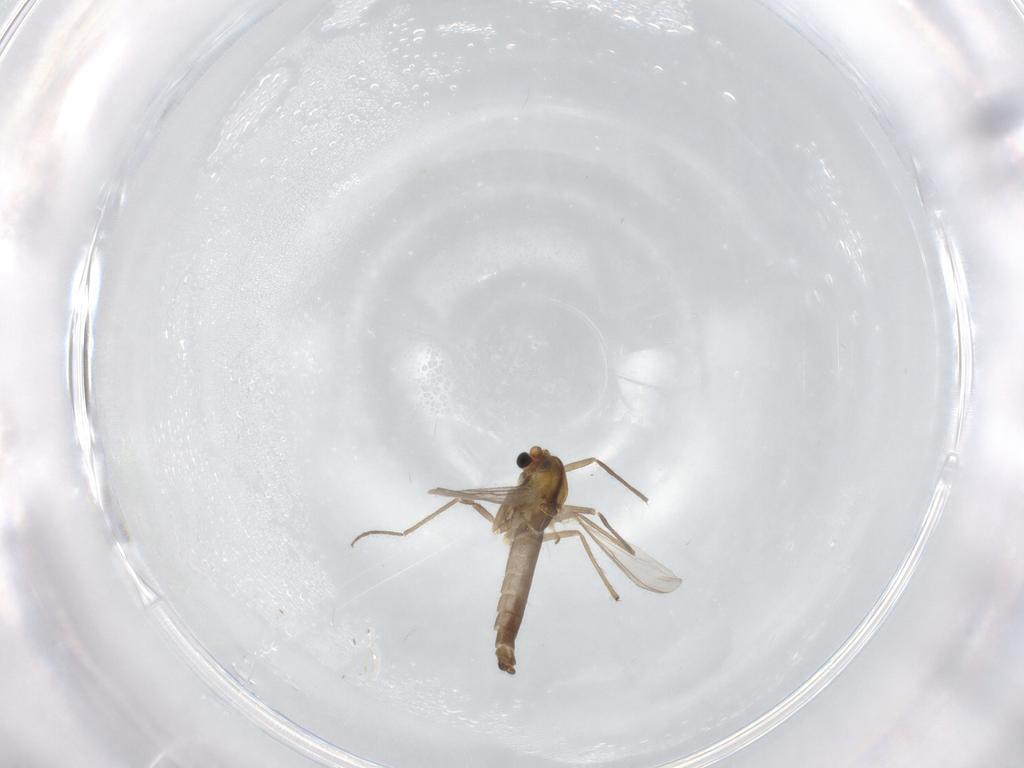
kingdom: Animalia
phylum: Arthropoda
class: Insecta
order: Diptera
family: Chironomidae
